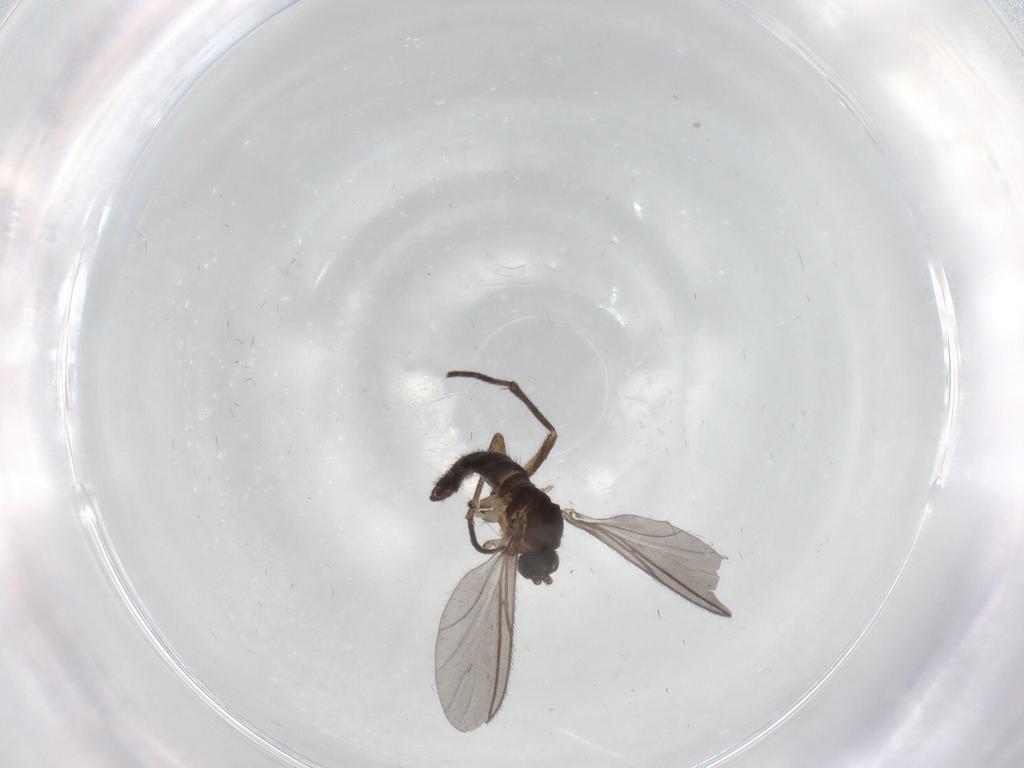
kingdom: Animalia
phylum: Arthropoda
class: Insecta
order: Diptera
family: Sciaridae
